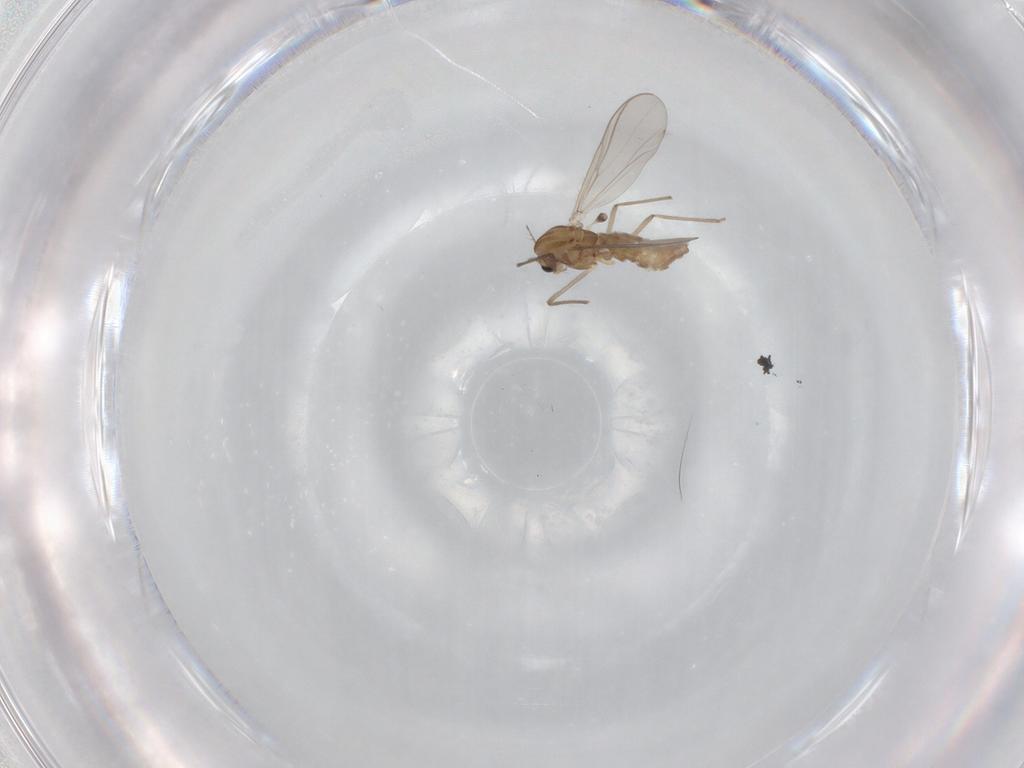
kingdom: Animalia
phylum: Arthropoda
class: Insecta
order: Diptera
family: Chironomidae
